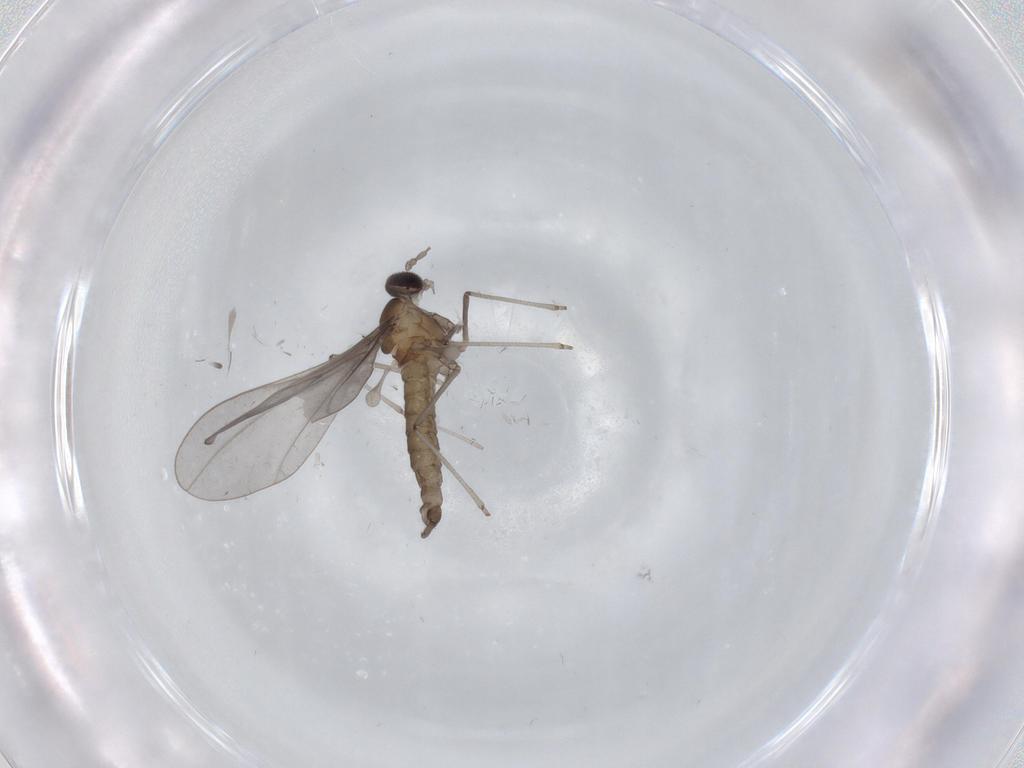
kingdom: Animalia
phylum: Arthropoda
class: Insecta
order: Diptera
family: Cecidomyiidae
